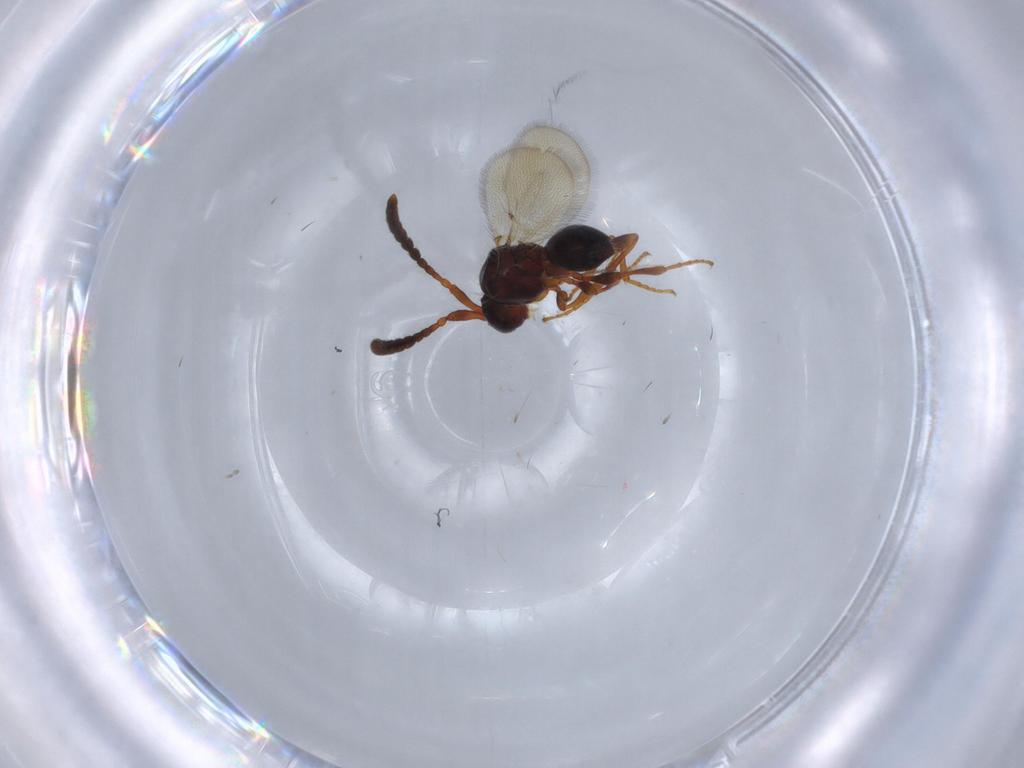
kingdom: Animalia
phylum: Arthropoda
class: Insecta
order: Hymenoptera
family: Diapriidae
